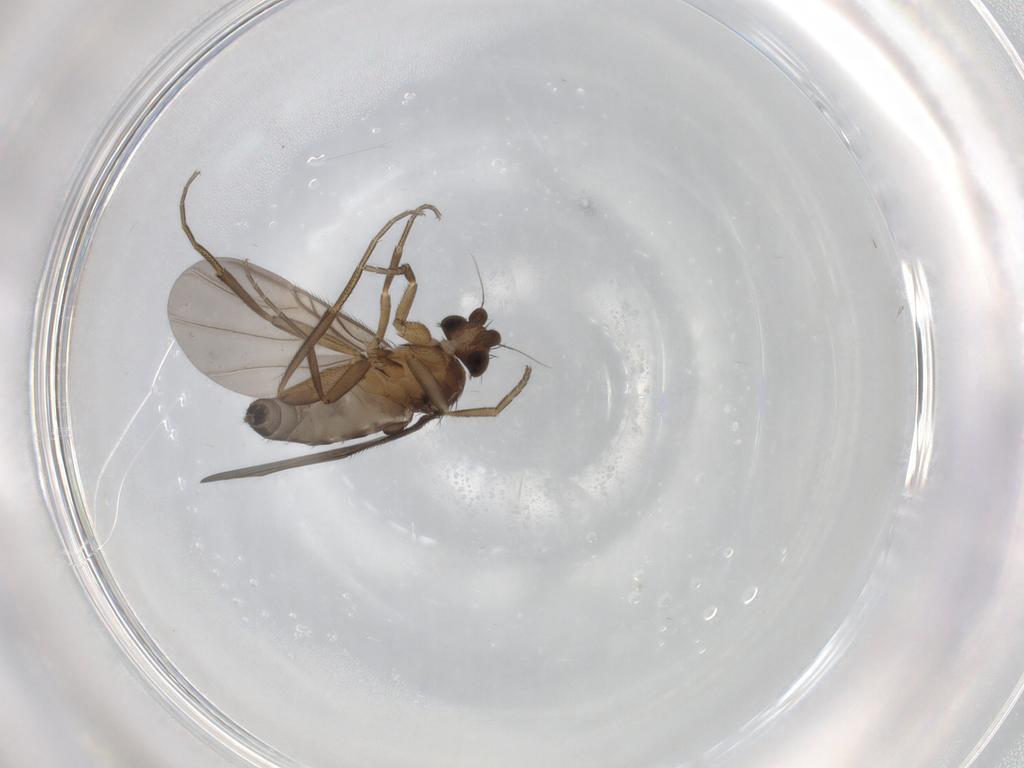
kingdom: Animalia
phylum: Arthropoda
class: Insecta
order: Diptera
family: Phoridae
